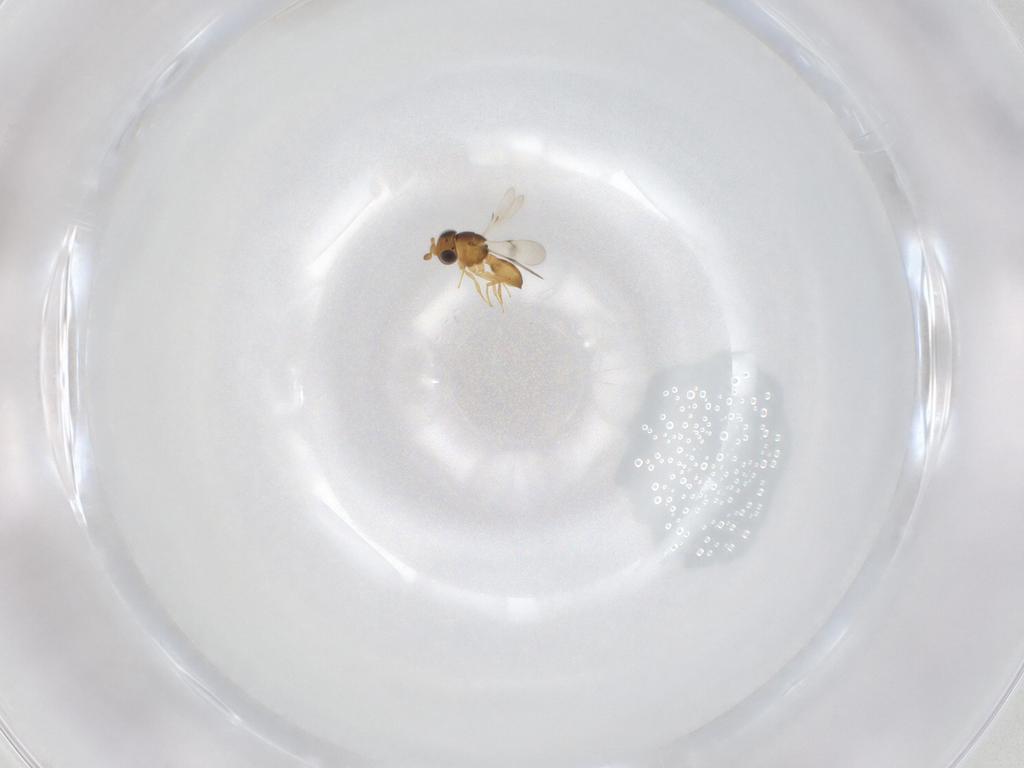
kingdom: Animalia
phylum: Arthropoda
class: Insecta
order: Hymenoptera
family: Scelionidae
